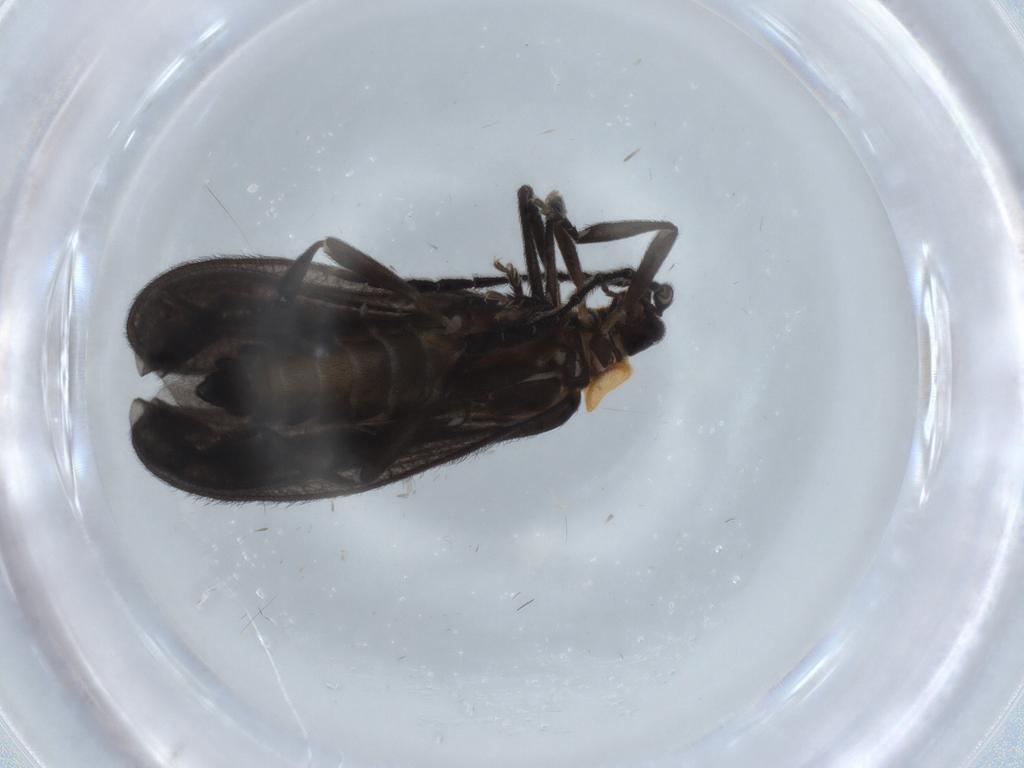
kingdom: Animalia
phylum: Arthropoda
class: Insecta
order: Coleoptera
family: Lycidae
